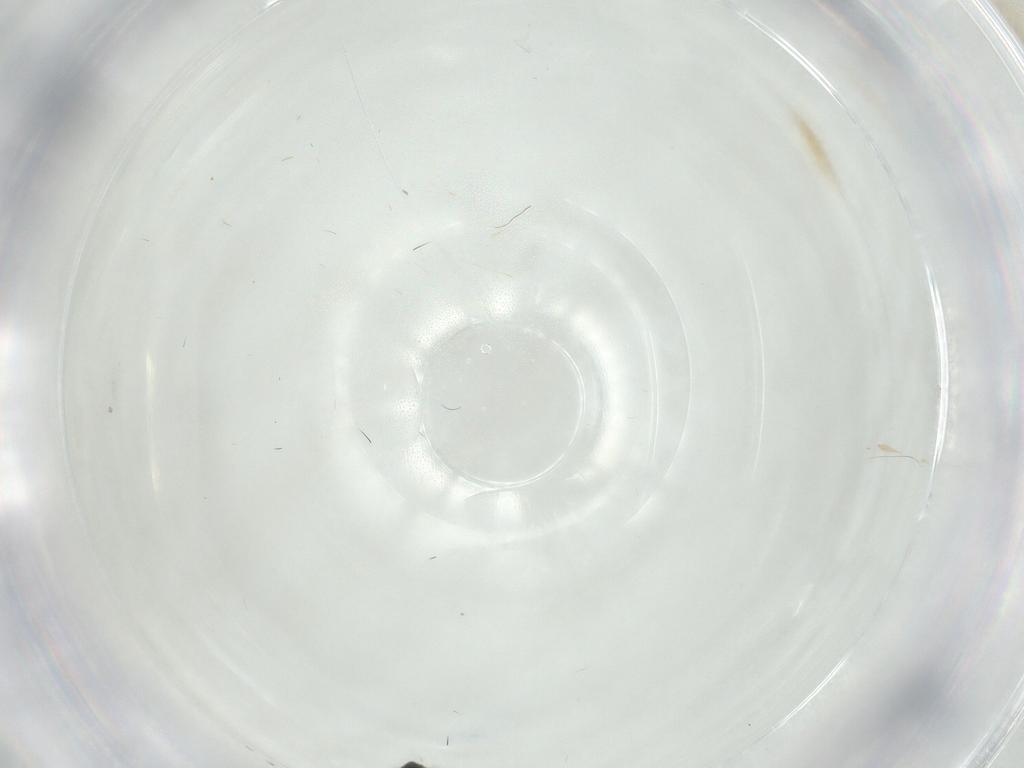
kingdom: Animalia
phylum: Arthropoda
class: Insecta
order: Hymenoptera
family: Mymaridae
